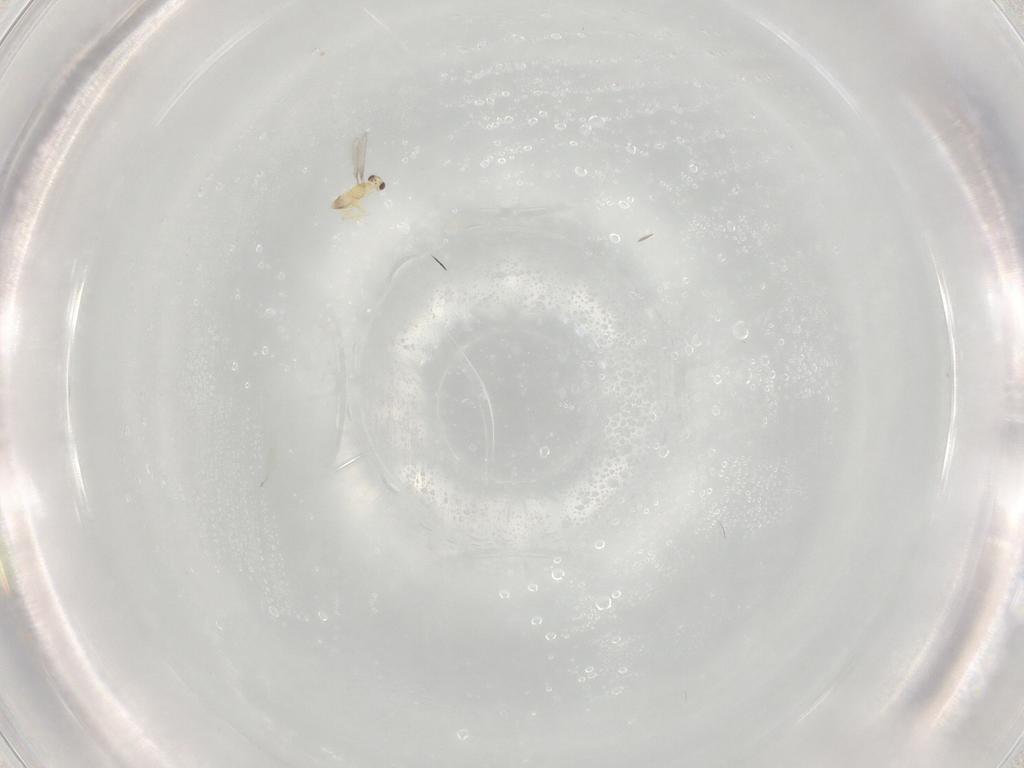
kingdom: Animalia
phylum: Arthropoda
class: Insecta
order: Hymenoptera
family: Mymaridae
